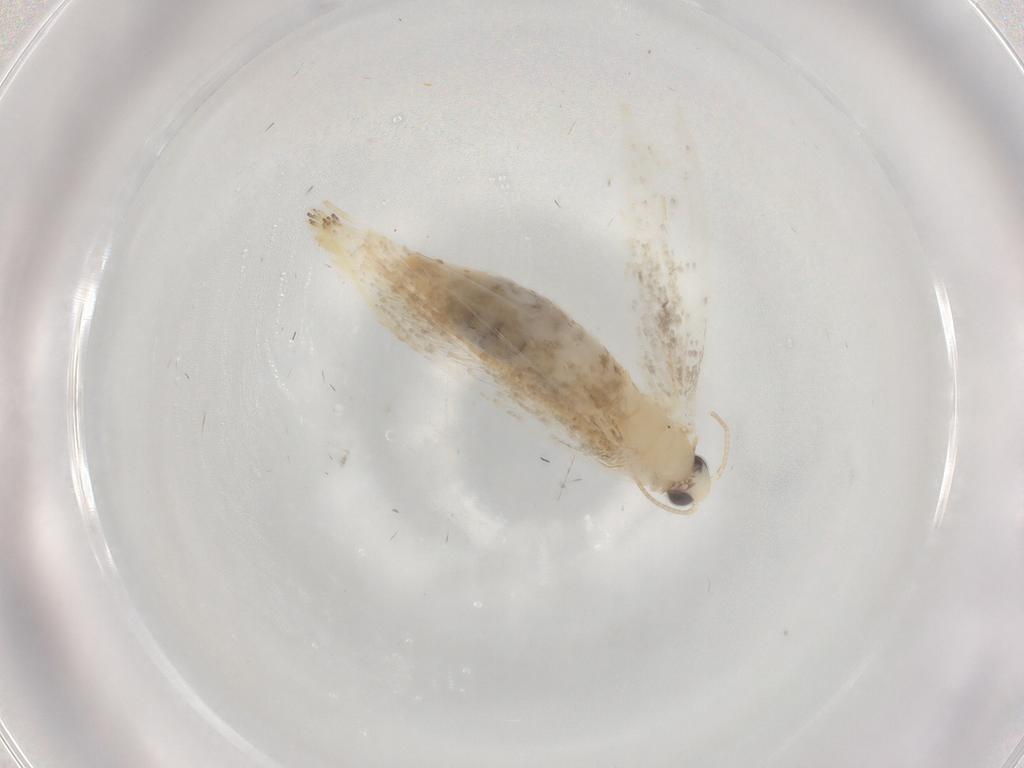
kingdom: Animalia
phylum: Arthropoda
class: Insecta
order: Lepidoptera
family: Tineidae
